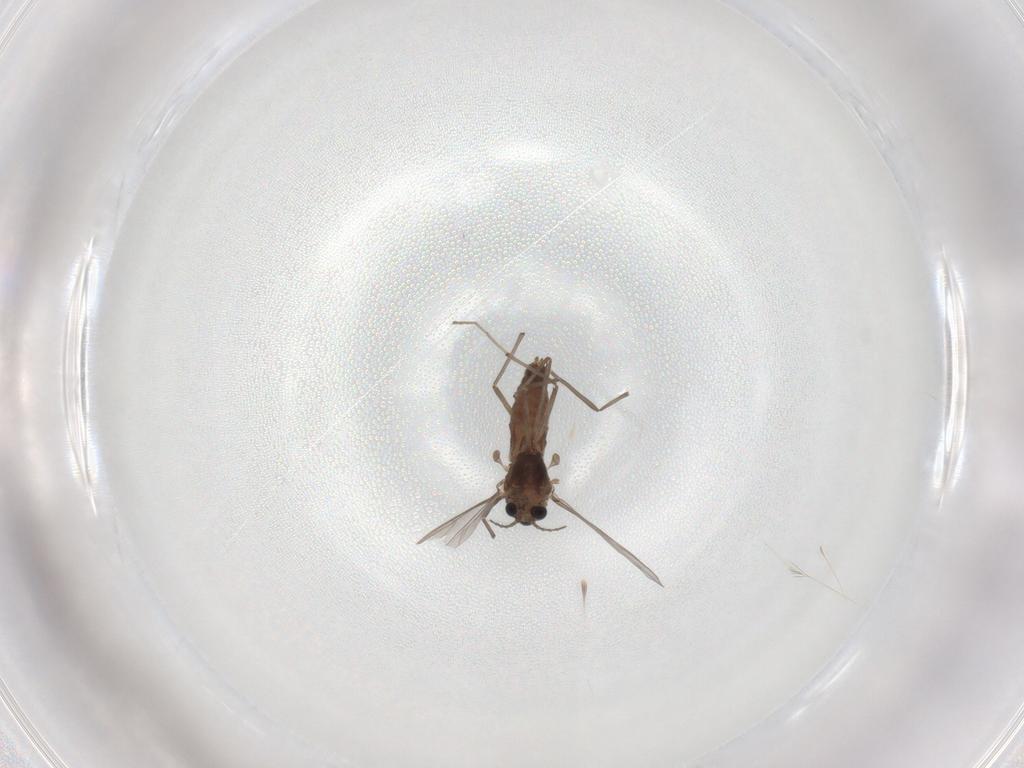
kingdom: Animalia
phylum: Arthropoda
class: Insecta
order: Diptera
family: Chironomidae
